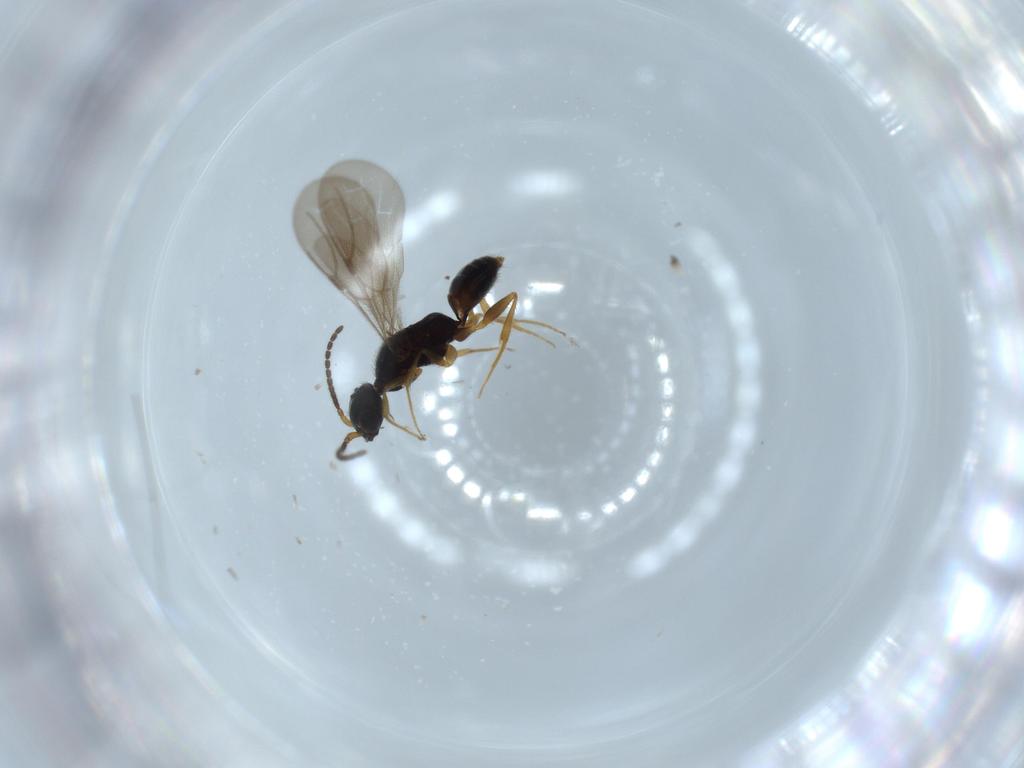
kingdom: Animalia
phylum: Arthropoda
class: Insecta
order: Hymenoptera
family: Bethylidae
